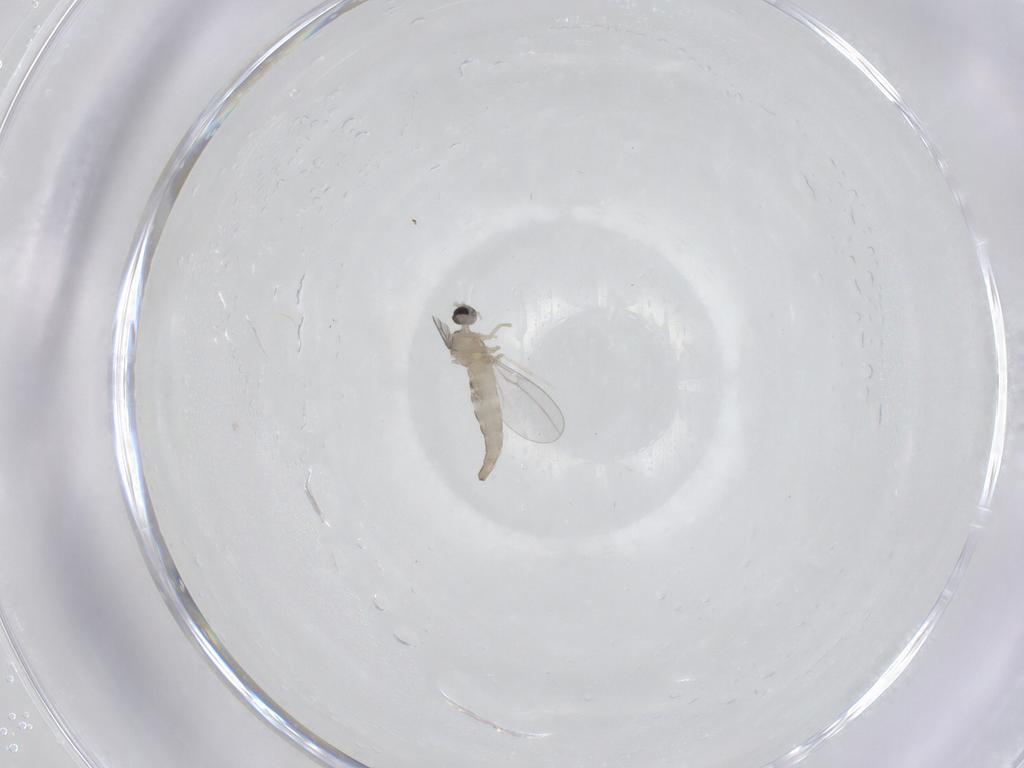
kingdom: Animalia
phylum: Arthropoda
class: Insecta
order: Diptera
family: Cecidomyiidae
